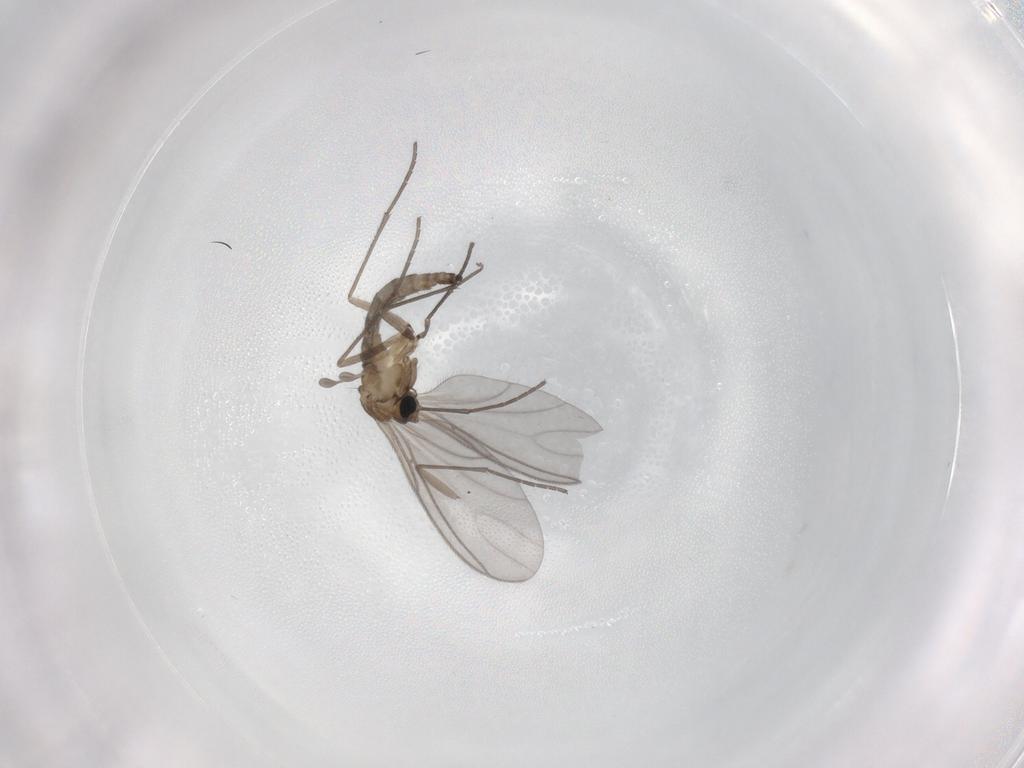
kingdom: Animalia
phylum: Arthropoda
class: Insecta
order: Diptera
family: Sciaridae
